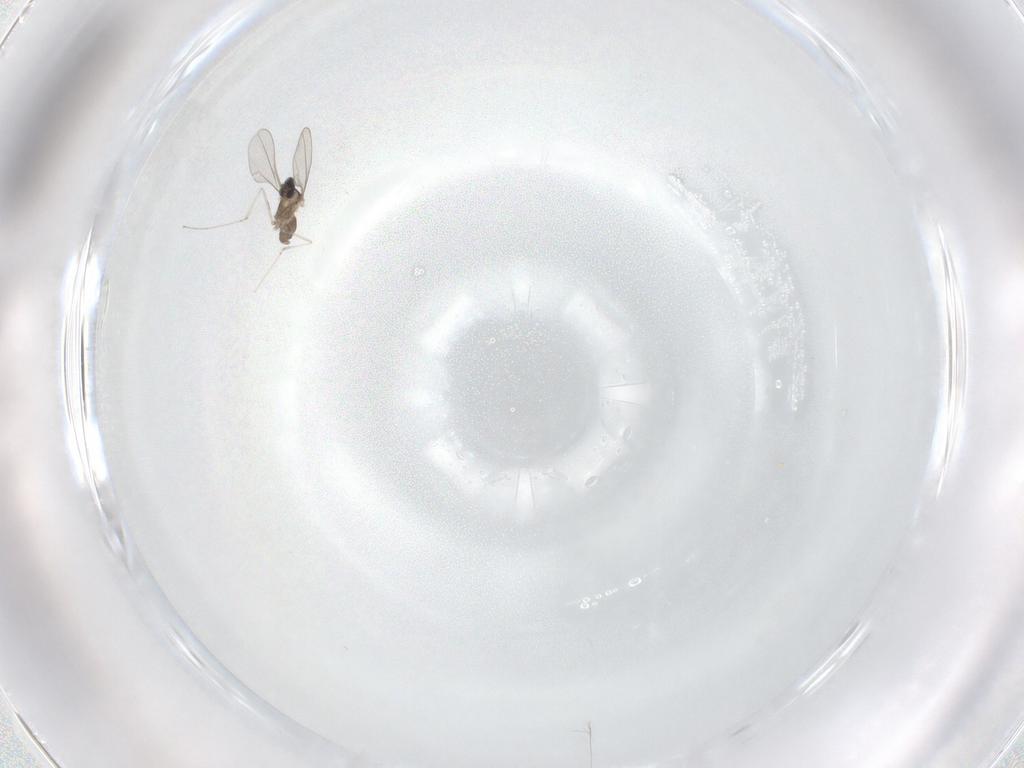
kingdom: Animalia
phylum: Arthropoda
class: Insecta
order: Diptera
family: Cecidomyiidae
